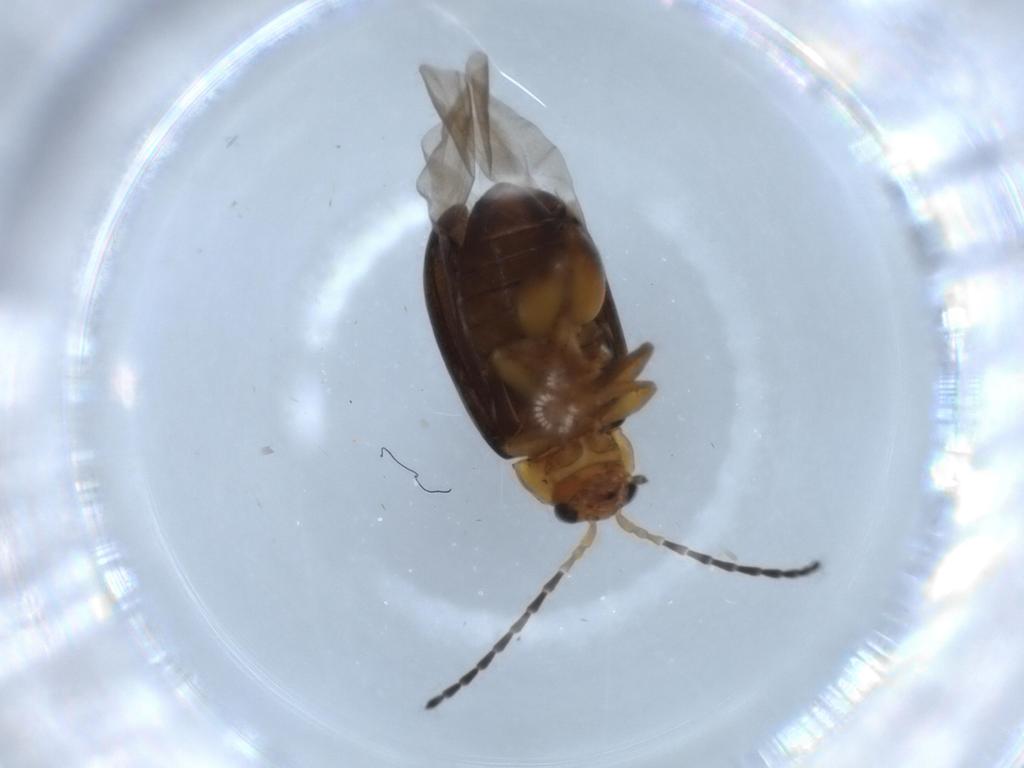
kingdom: Animalia
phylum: Arthropoda
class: Insecta
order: Coleoptera
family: Chrysomelidae
